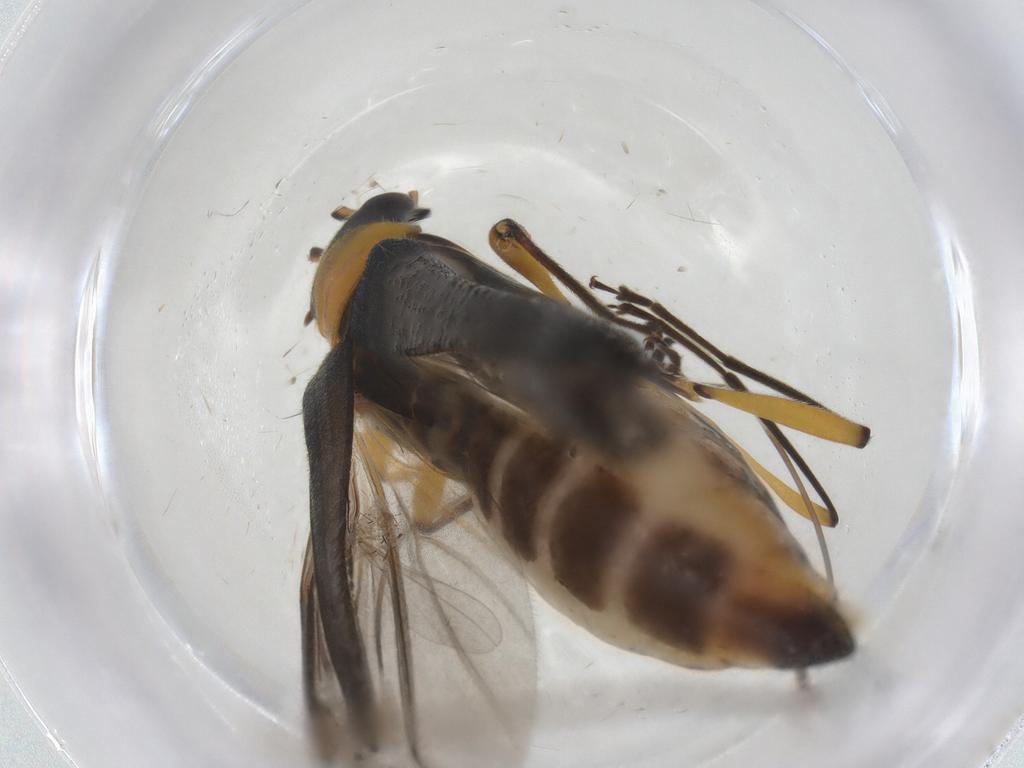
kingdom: Animalia
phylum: Arthropoda
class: Insecta
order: Coleoptera
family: Oedemeridae
